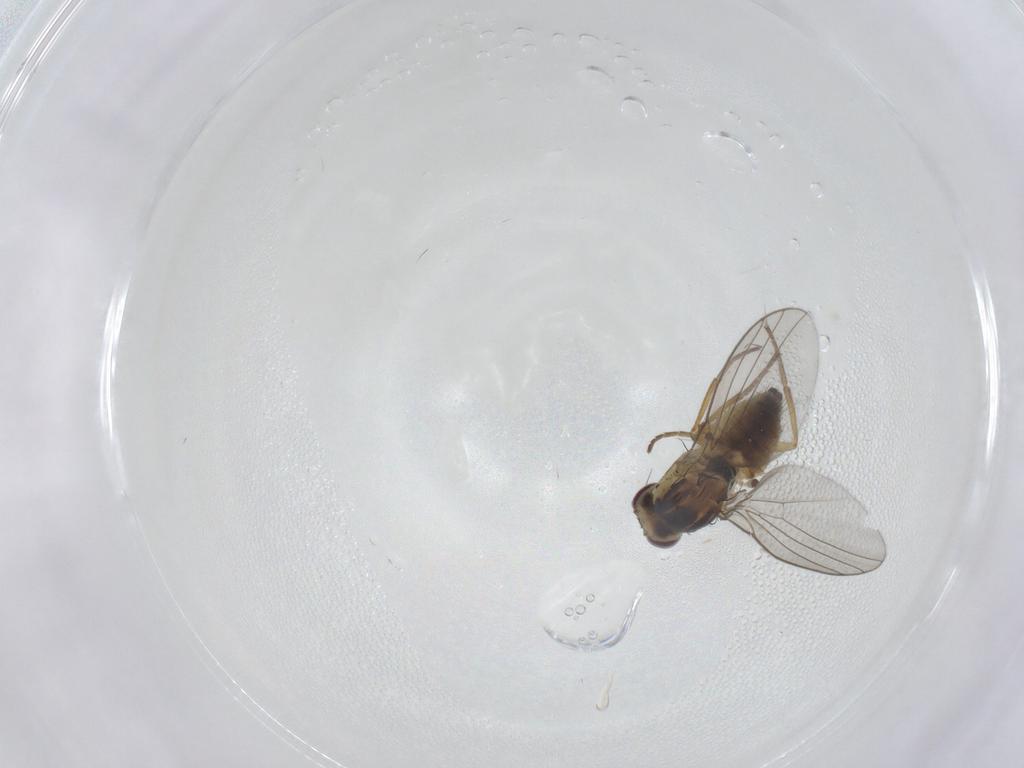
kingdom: Animalia
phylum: Arthropoda
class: Insecta
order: Diptera
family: Agromyzidae
